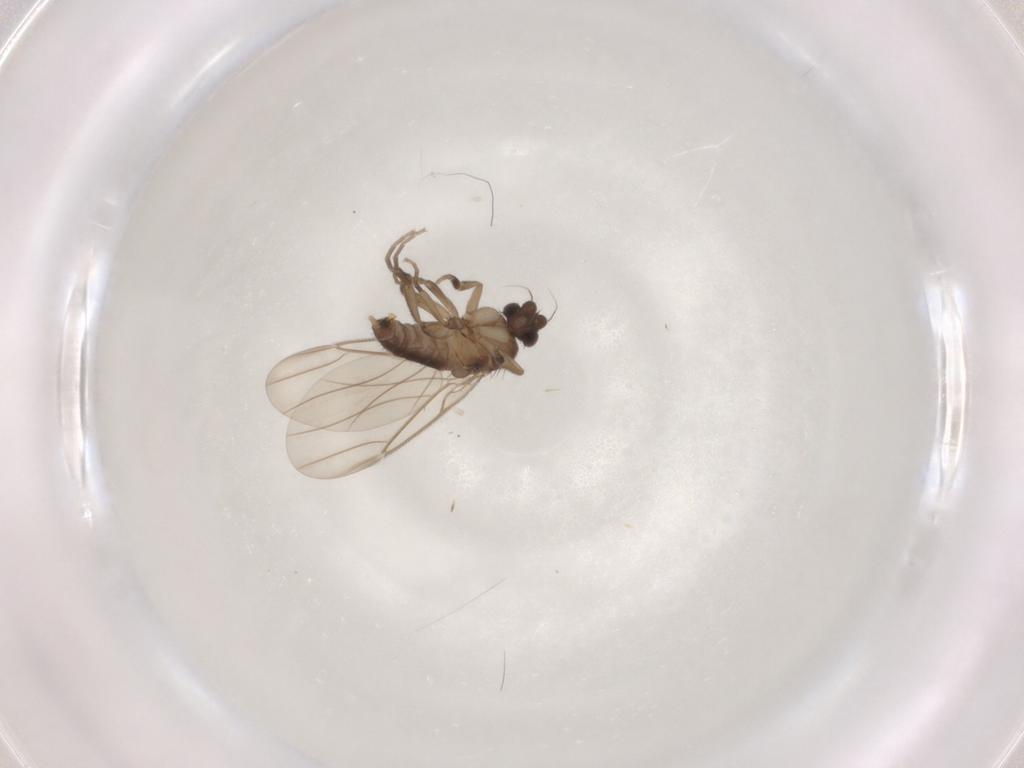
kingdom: Animalia
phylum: Arthropoda
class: Insecta
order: Diptera
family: Phoridae
